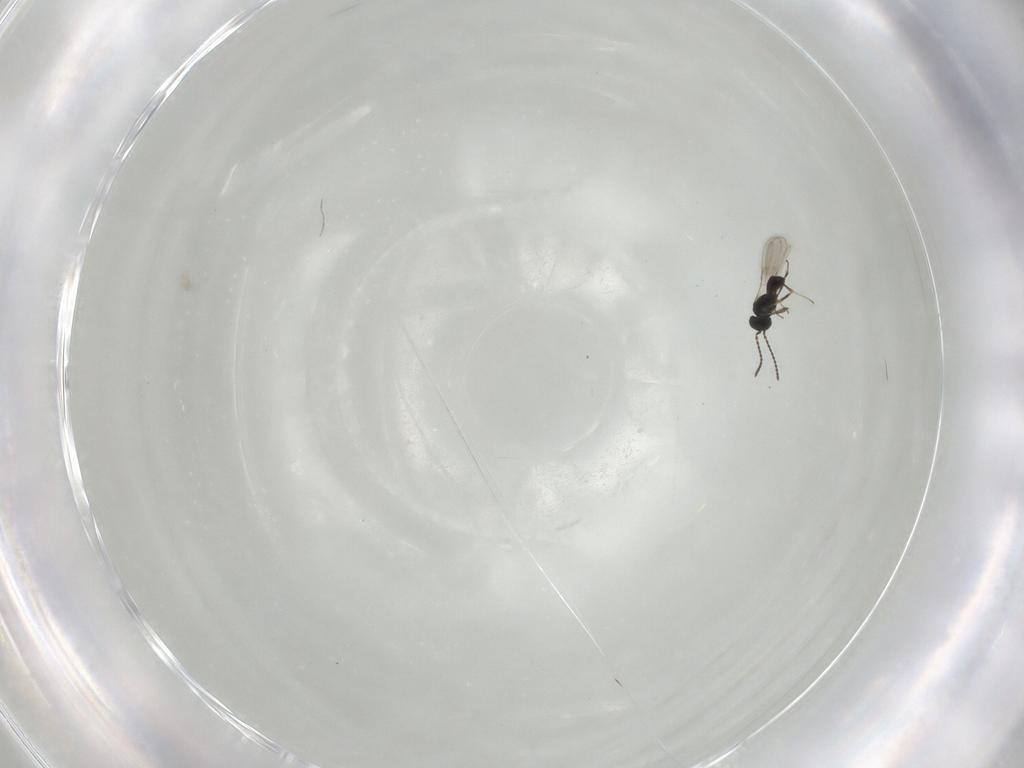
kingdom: Animalia
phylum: Arthropoda
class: Insecta
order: Hymenoptera
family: Scelionidae
